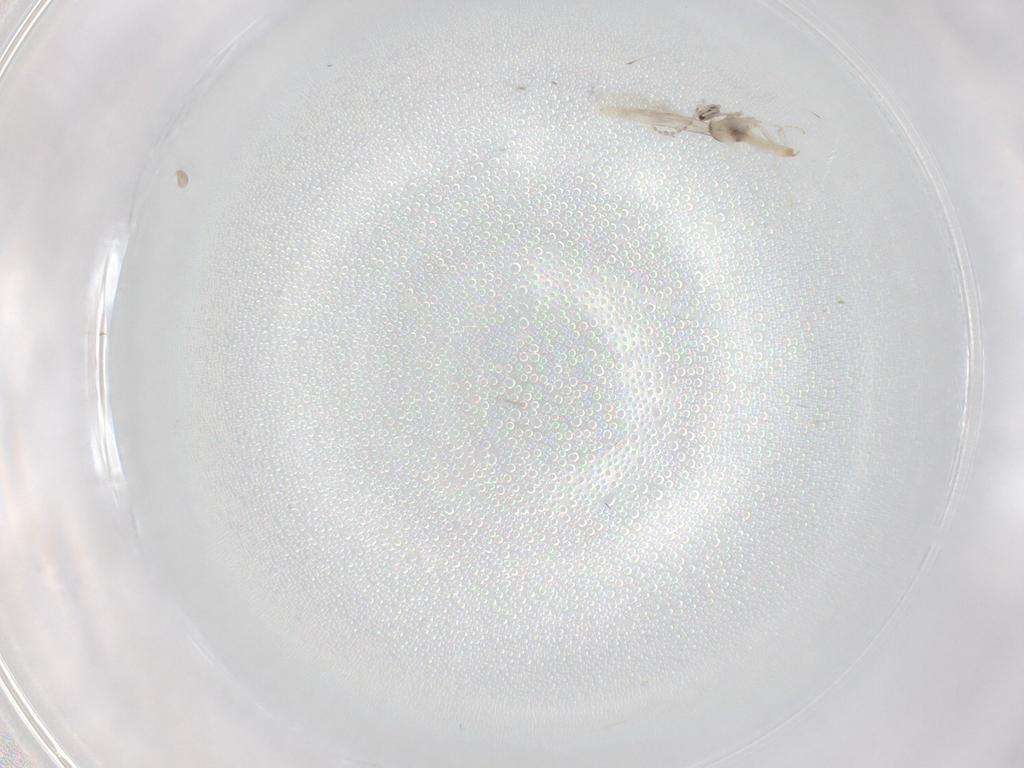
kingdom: Animalia
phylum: Arthropoda
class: Insecta
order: Diptera
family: Cecidomyiidae
